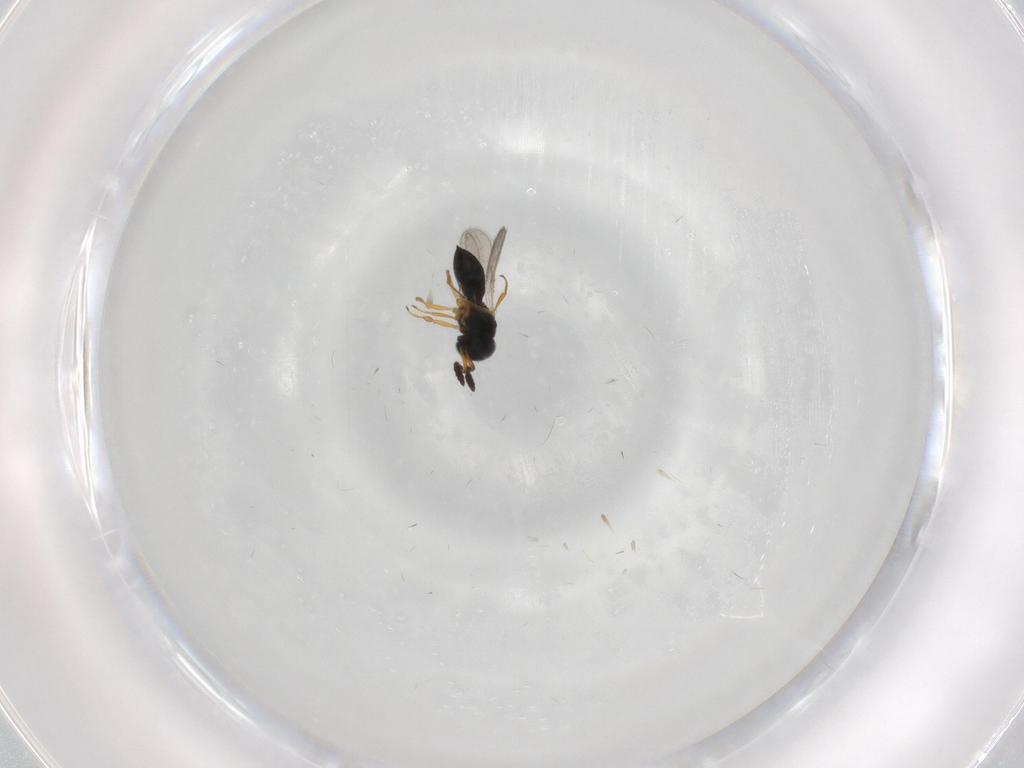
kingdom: Animalia
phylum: Arthropoda
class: Insecta
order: Hymenoptera
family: Scelionidae
